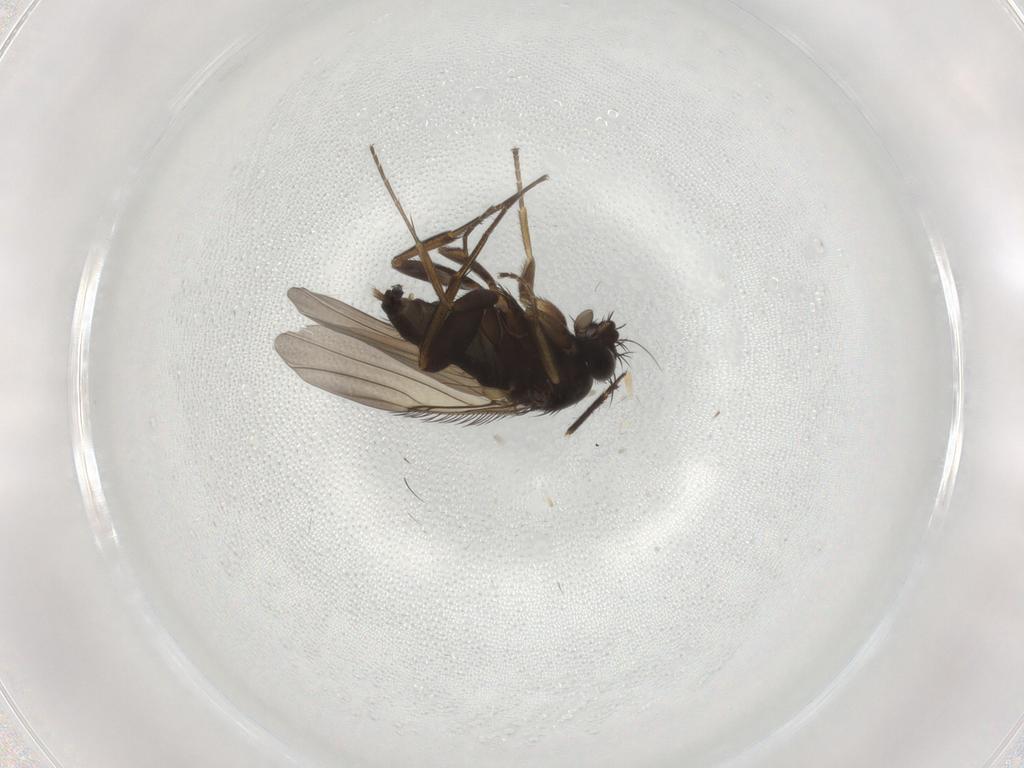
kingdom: Animalia
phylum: Arthropoda
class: Insecta
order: Diptera
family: Phoridae
